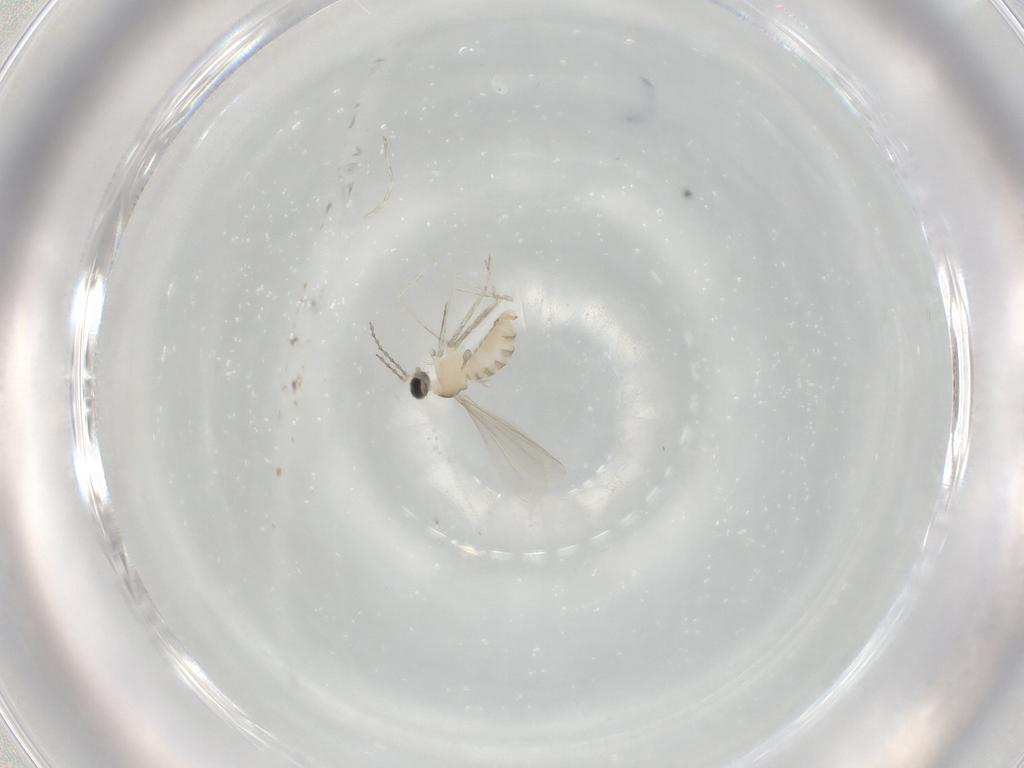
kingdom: Animalia
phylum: Arthropoda
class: Insecta
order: Diptera
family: Cecidomyiidae
